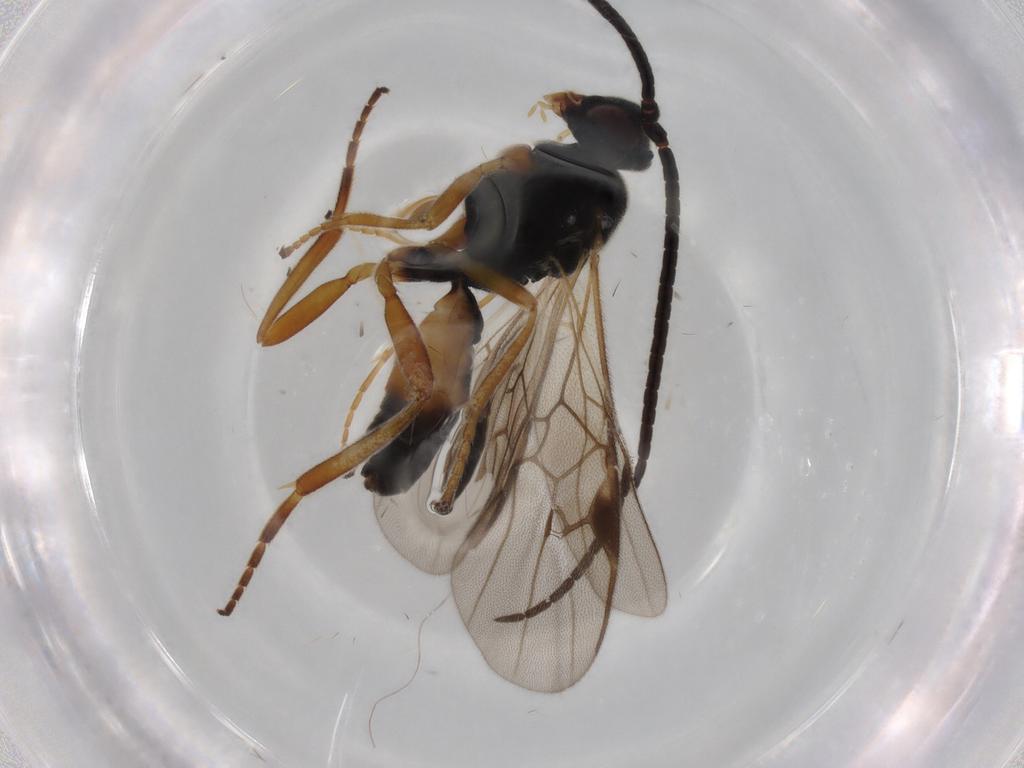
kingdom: Animalia
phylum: Arthropoda
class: Insecta
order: Hymenoptera
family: Braconidae
